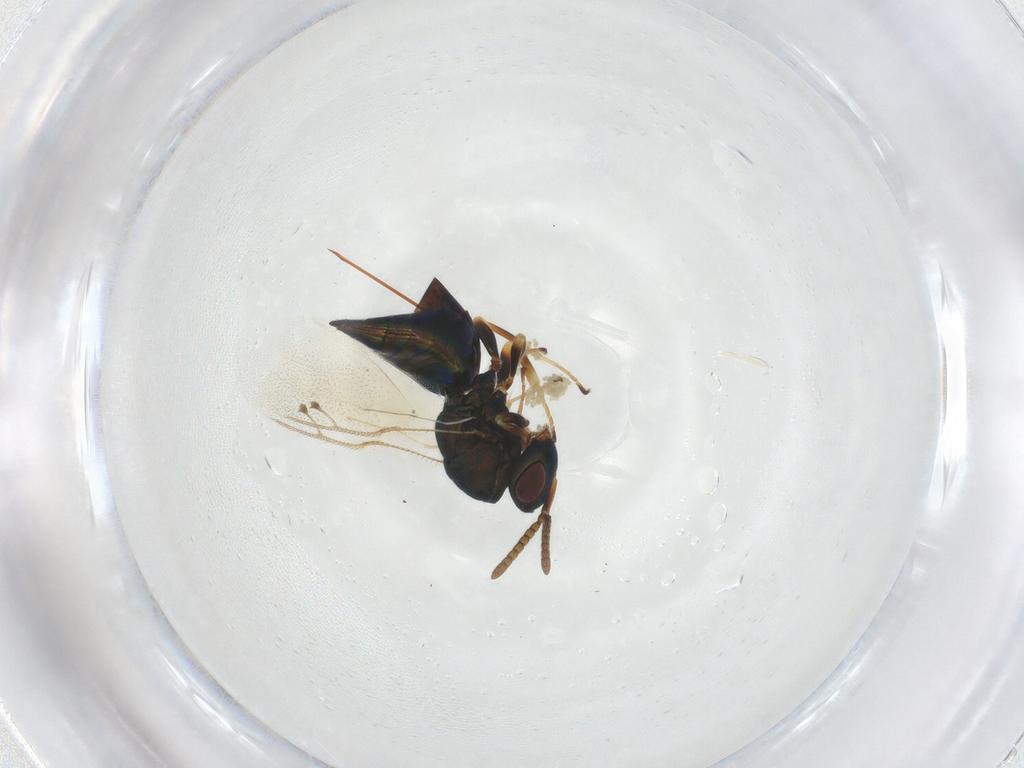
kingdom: Animalia
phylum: Arthropoda
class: Insecta
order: Hymenoptera
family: Pteromalidae
